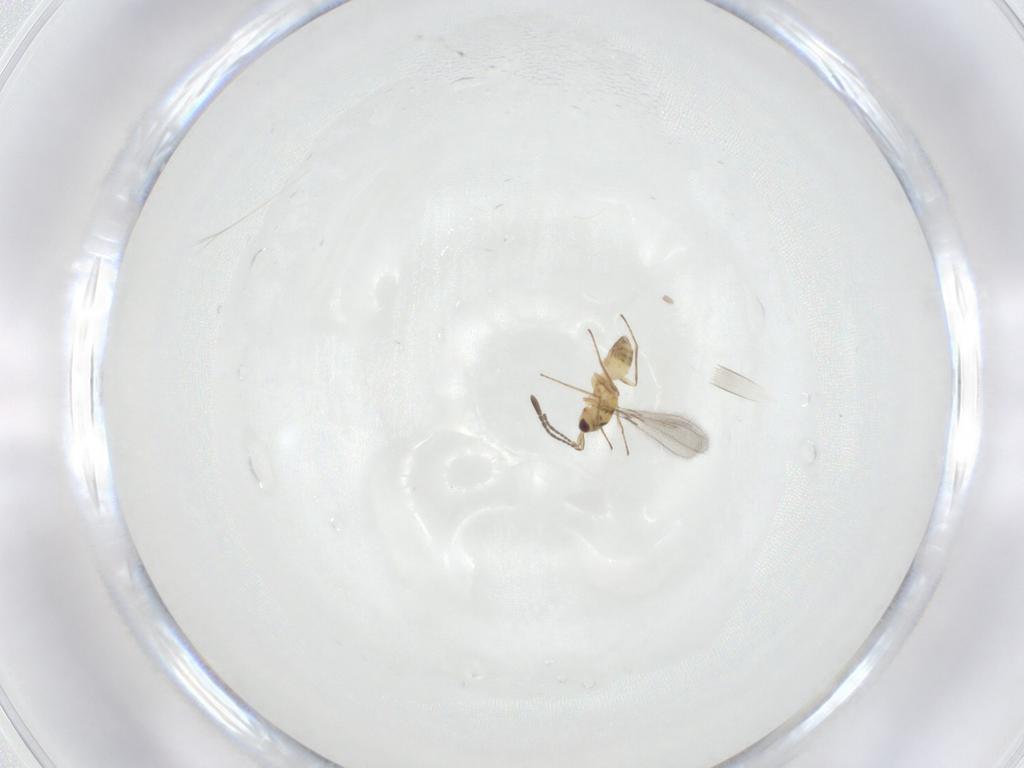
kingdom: Animalia
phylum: Arthropoda
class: Insecta
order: Hymenoptera
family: Mymaridae
